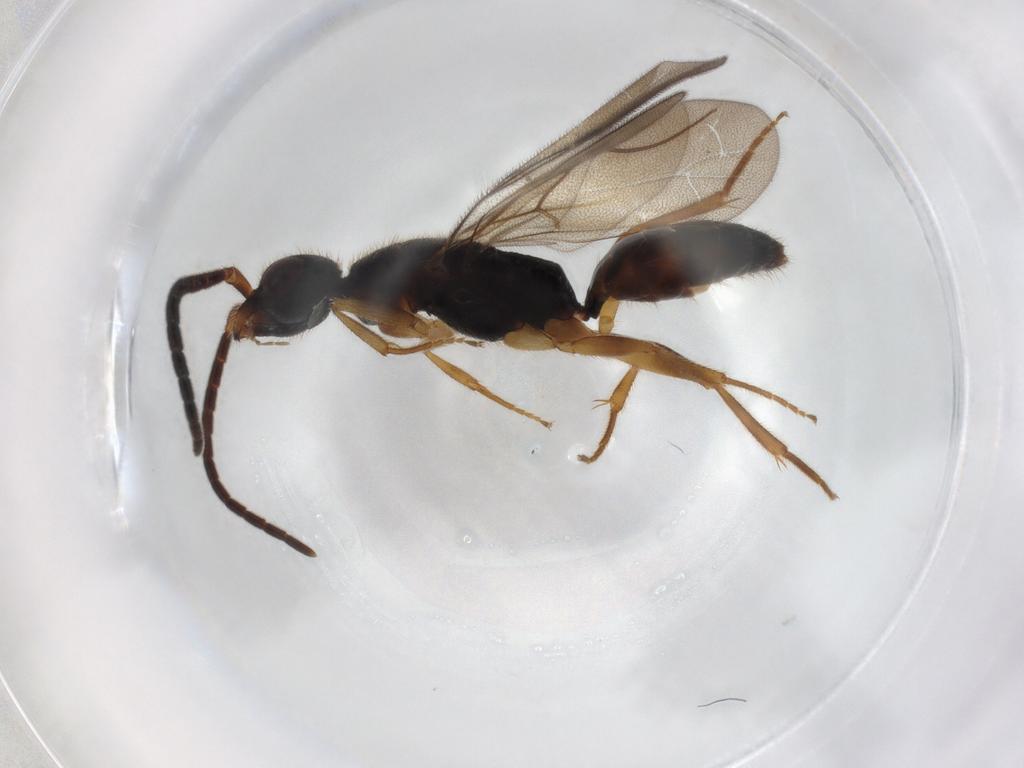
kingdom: Animalia
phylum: Arthropoda
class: Insecta
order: Hymenoptera
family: Bethylidae
